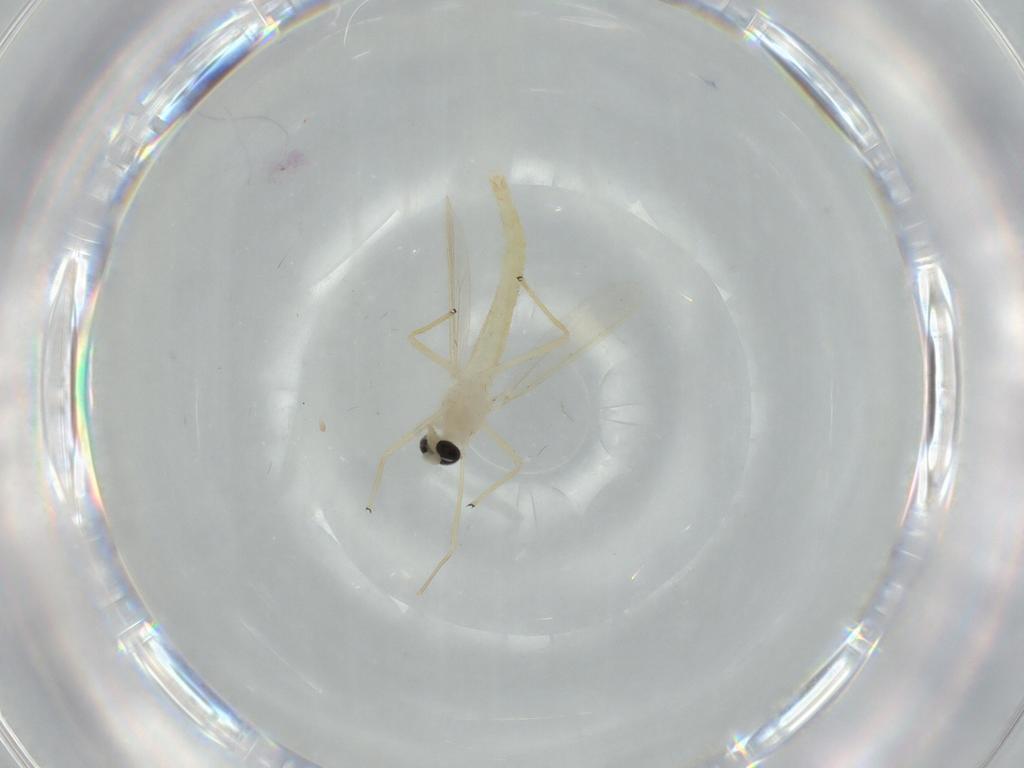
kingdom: Animalia
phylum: Arthropoda
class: Insecta
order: Diptera
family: Chironomidae
